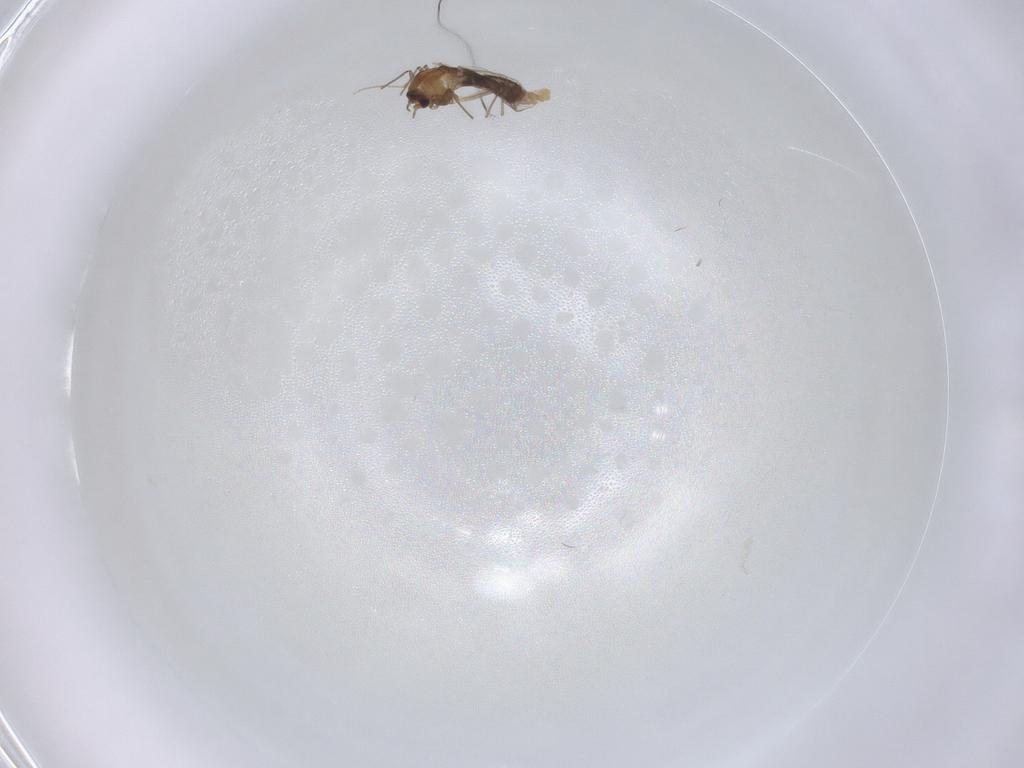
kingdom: Animalia
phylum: Arthropoda
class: Insecta
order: Diptera
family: Chironomidae
